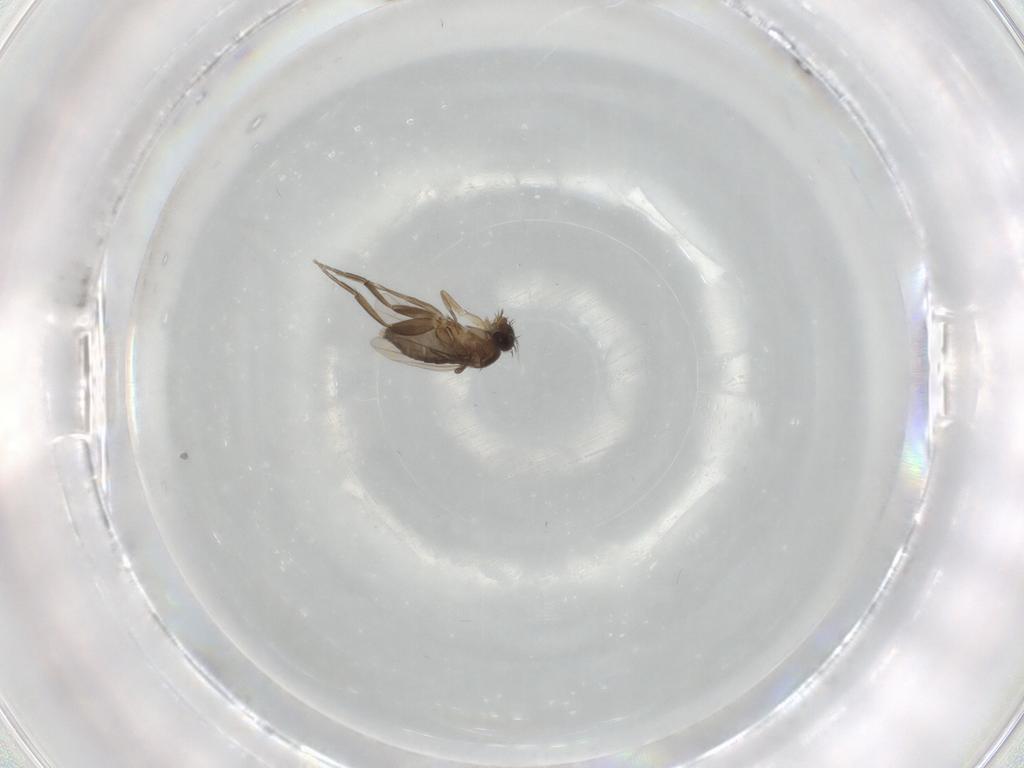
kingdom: Animalia
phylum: Arthropoda
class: Insecta
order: Diptera
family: Phoridae
